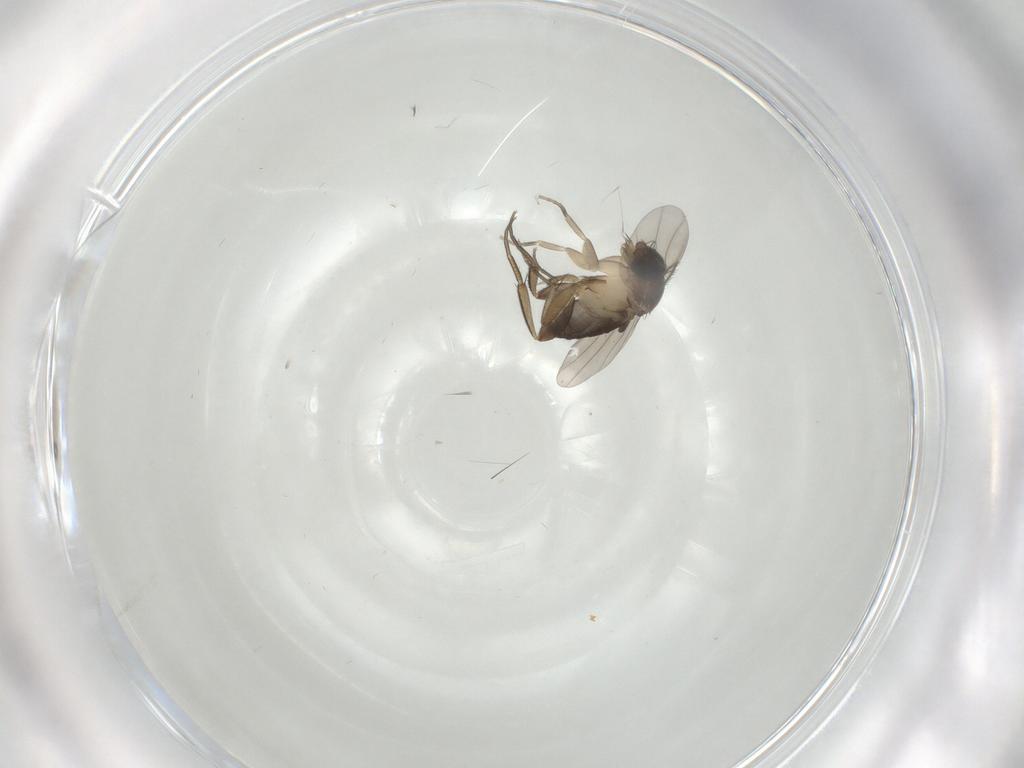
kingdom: Animalia
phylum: Arthropoda
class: Insecta
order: Diptera
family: Phoridae
